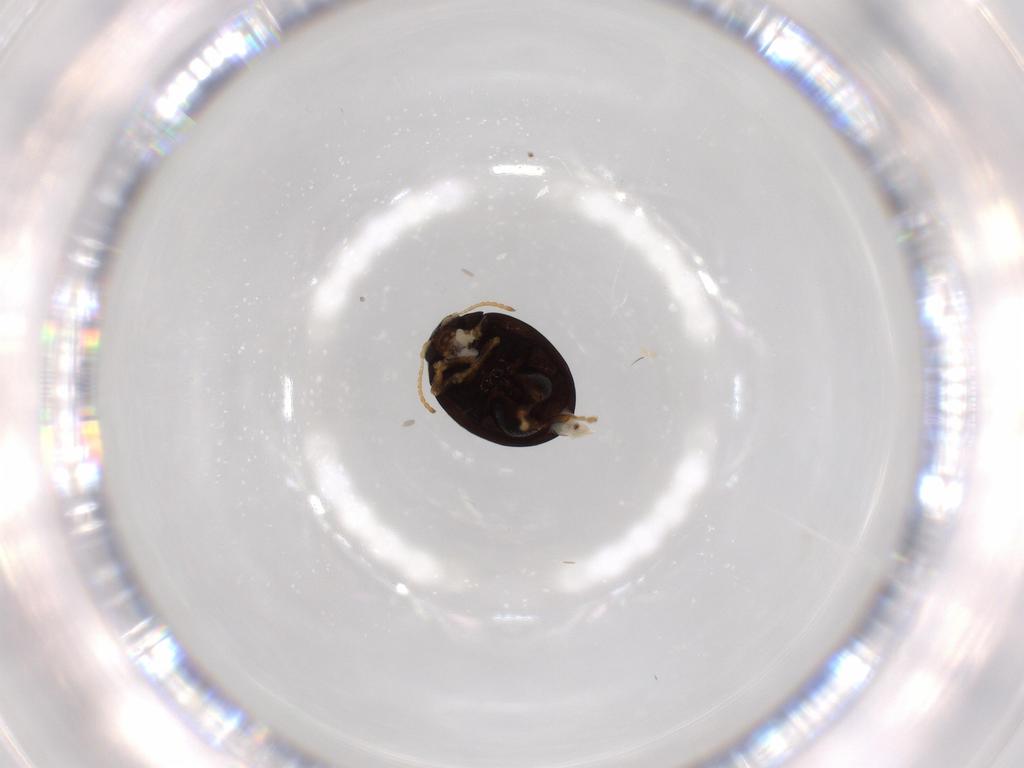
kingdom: Animalia
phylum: Arthropoda
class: Insecta
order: Coleoptera
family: Chrysomelidae
